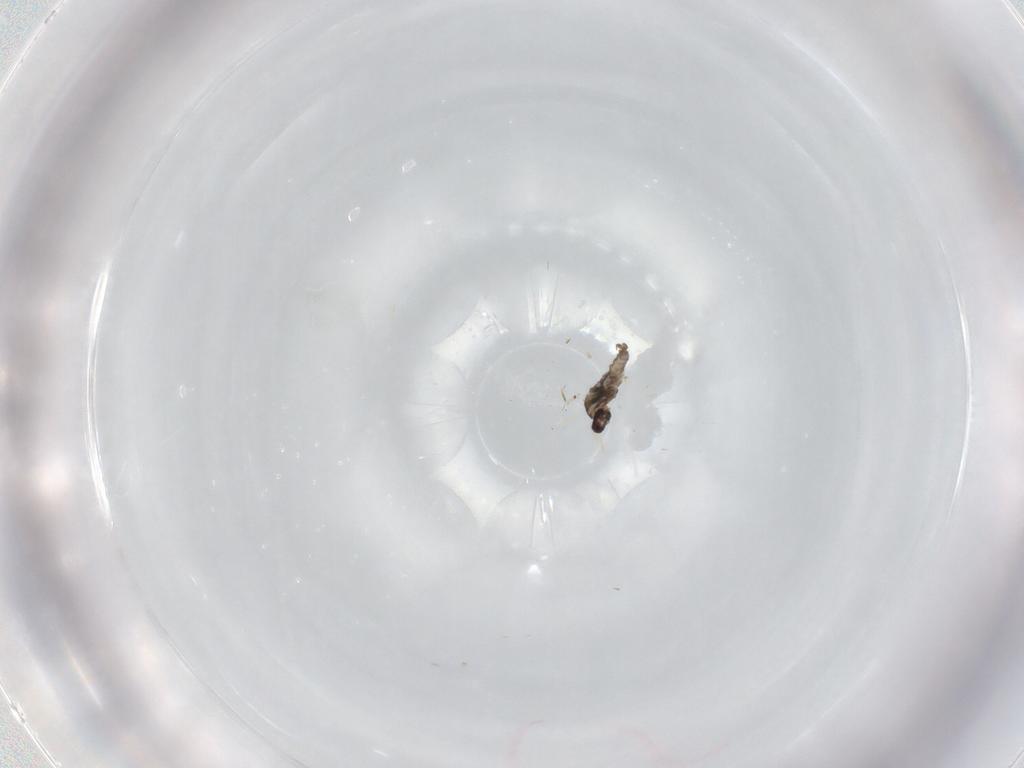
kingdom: Animalia
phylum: Arthropoda
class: Insecta
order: Diptera
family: Cecidomyiidae
